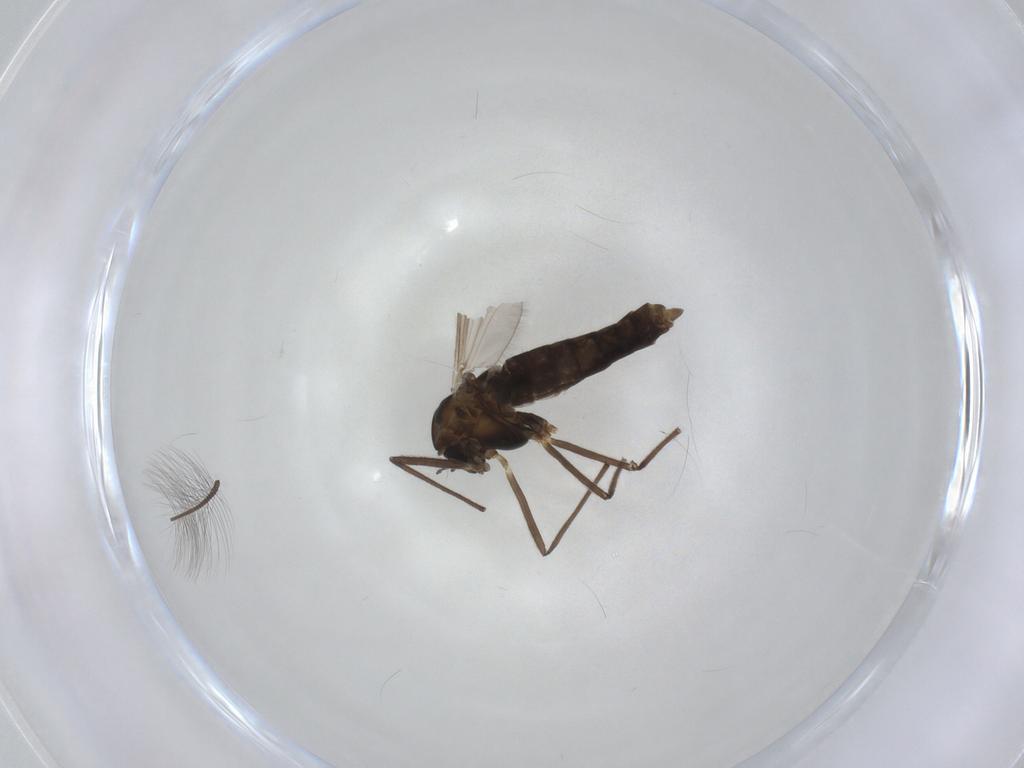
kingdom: Animalia
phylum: Arthropoda
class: Insecta
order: Diptera
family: Chironomidae
